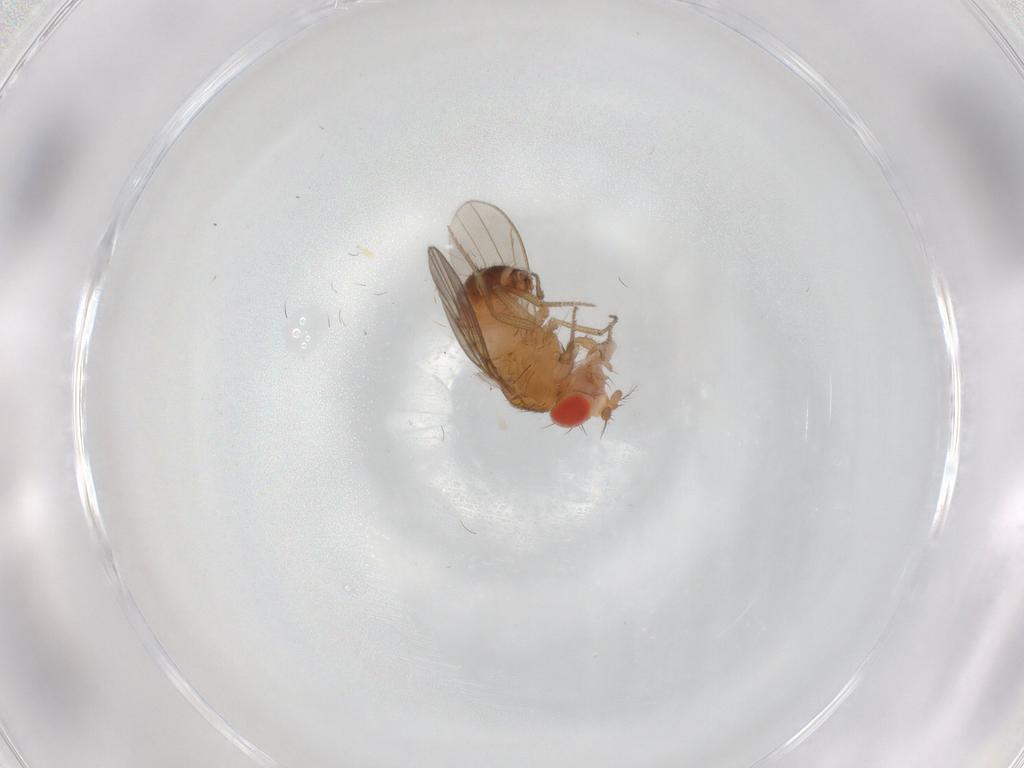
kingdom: Animalia
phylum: Arthropoda
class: Insecta
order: Diptera
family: Drosophilidae
